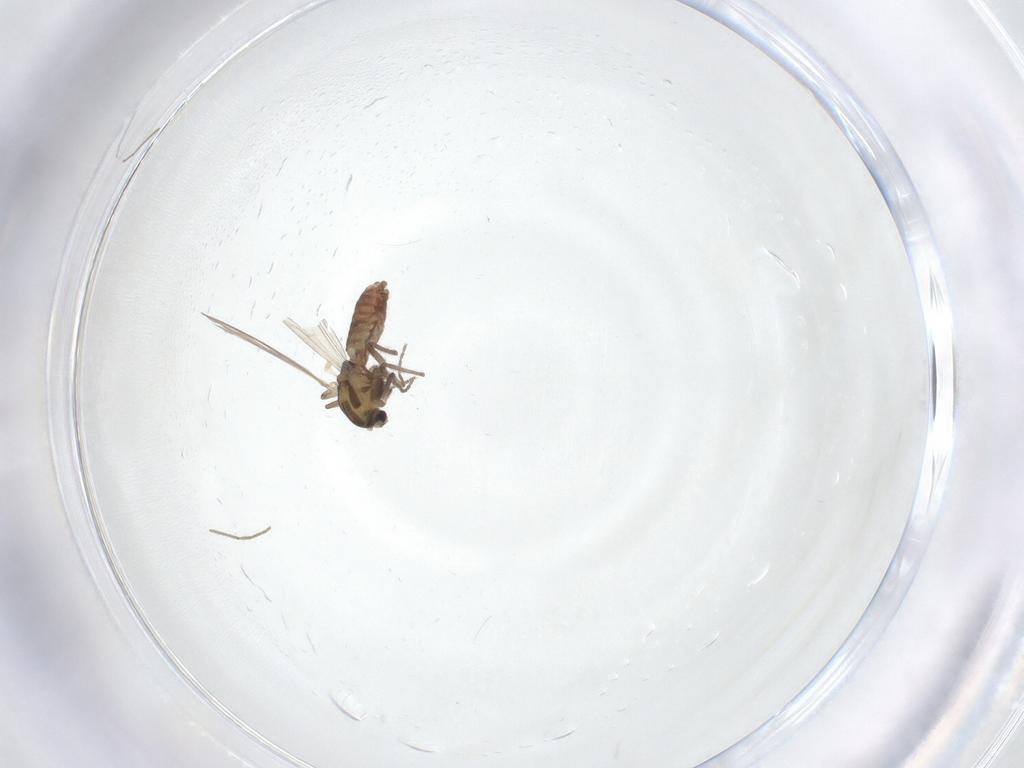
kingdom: Animalia
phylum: Arthropoda
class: Insecta
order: Diptera
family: Chironomidae
